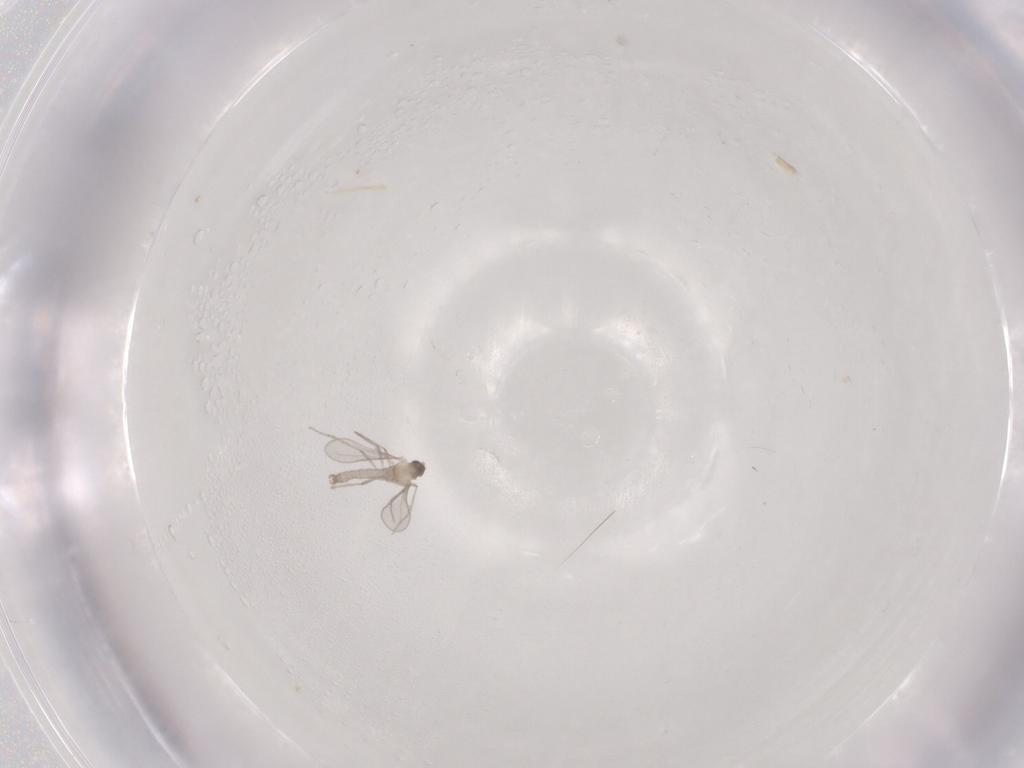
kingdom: Animalia
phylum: Arthropoda
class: Insecta
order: Diptera
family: Cecidomyiidae
